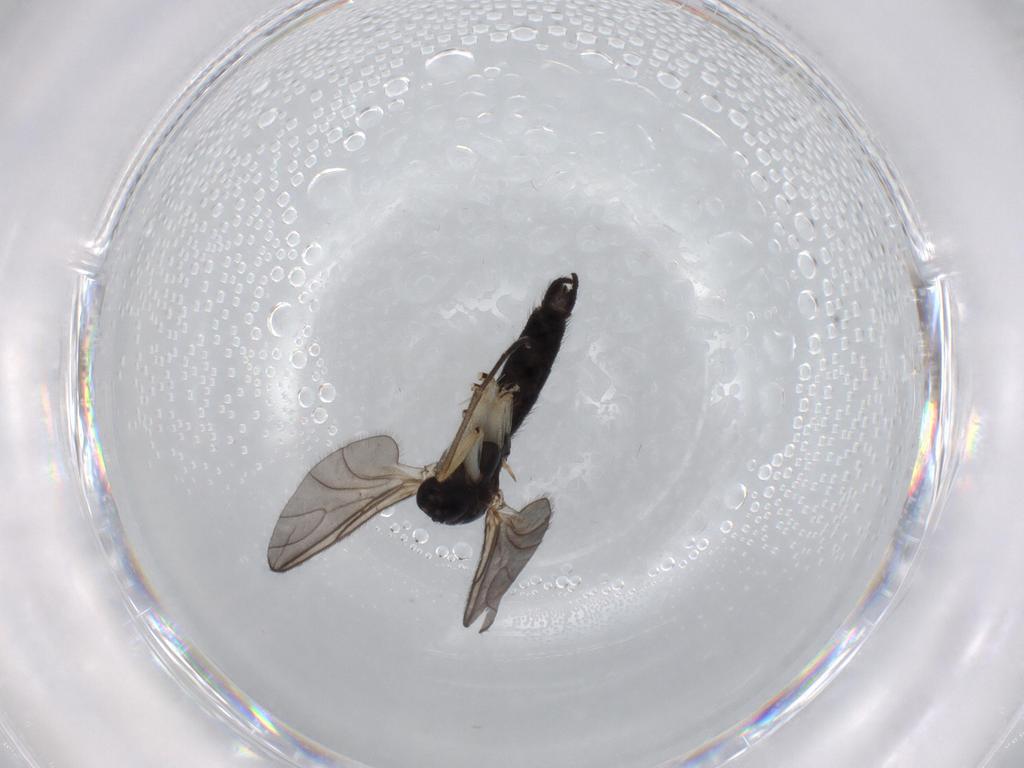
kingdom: Animalia
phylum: Arthropoda
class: Insecta
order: Diptera
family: Sciaridae
